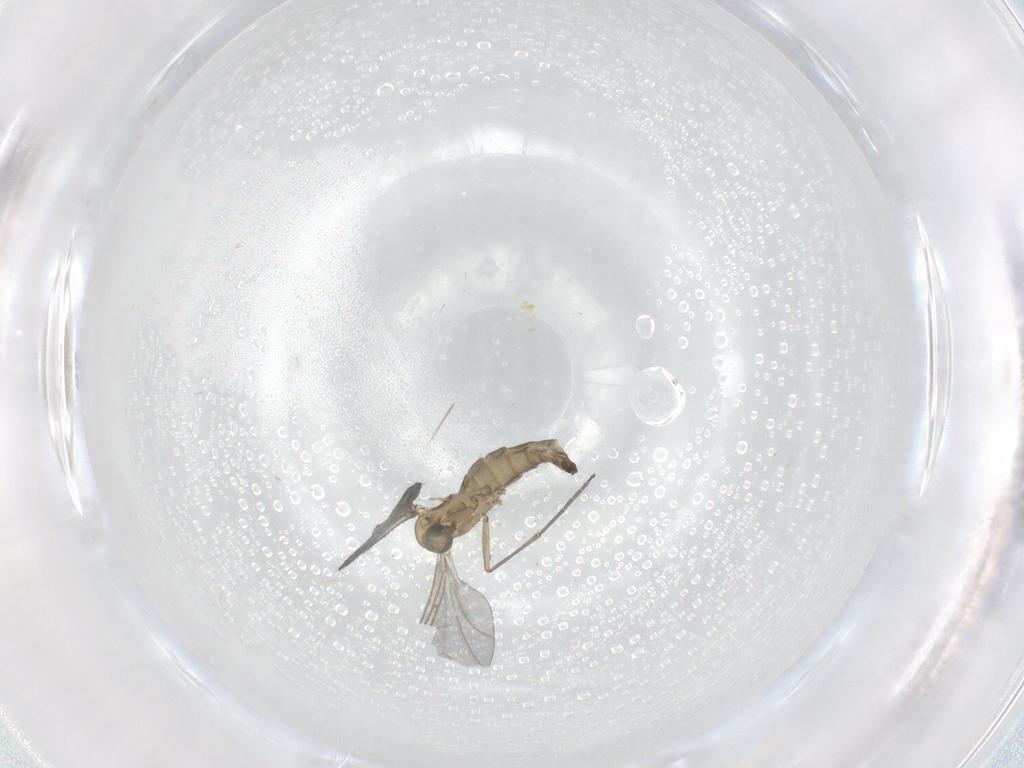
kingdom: Animalia
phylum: Arthropoda
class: Insecta
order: Diptera
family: Sciaridae
